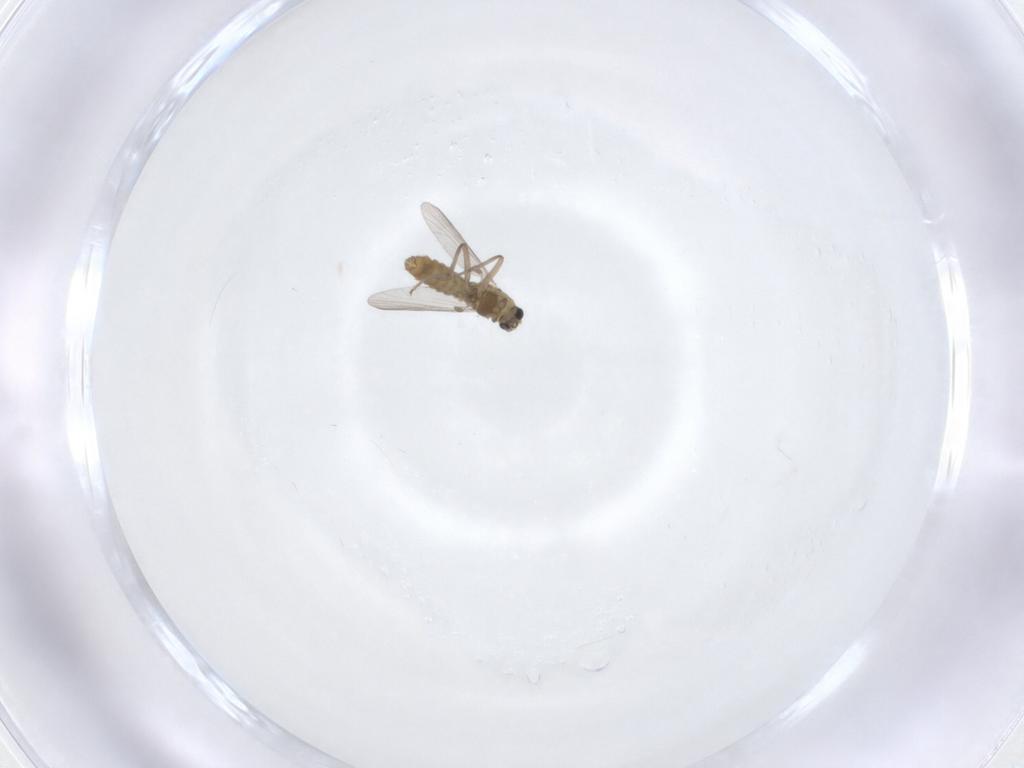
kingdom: Animalia
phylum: Arthropoda
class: Insecta
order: Diptera
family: Chironomidae
